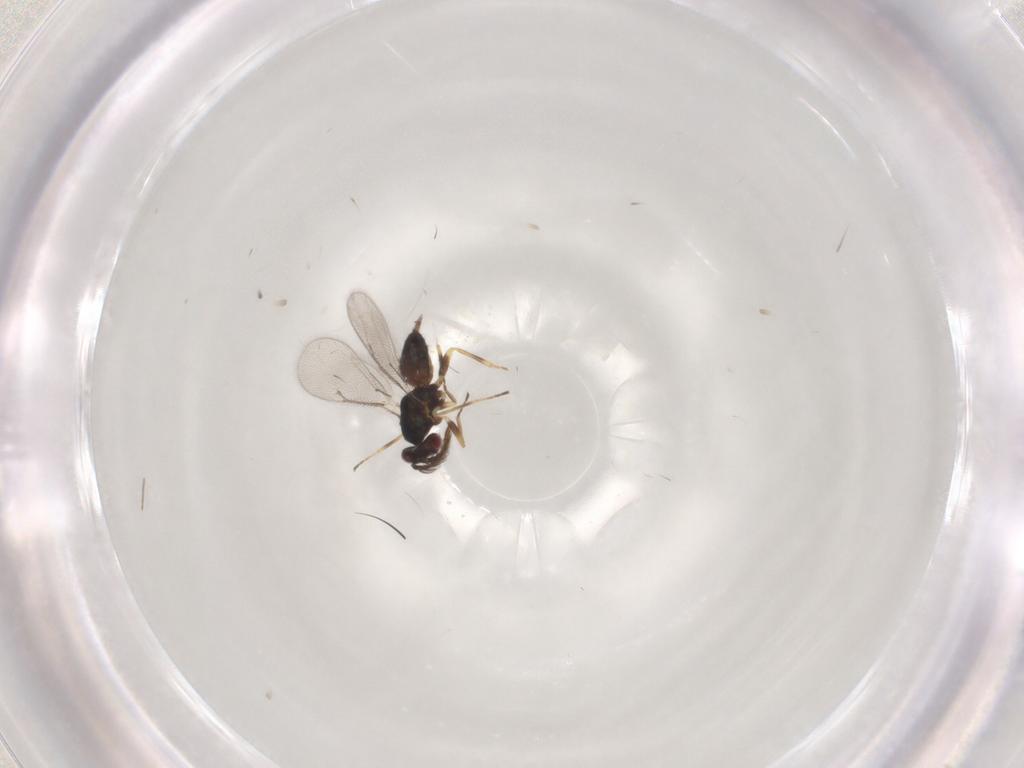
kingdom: Animalia
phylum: Arthropoda
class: Insecta
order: Hymenoptera
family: Eulophidae
